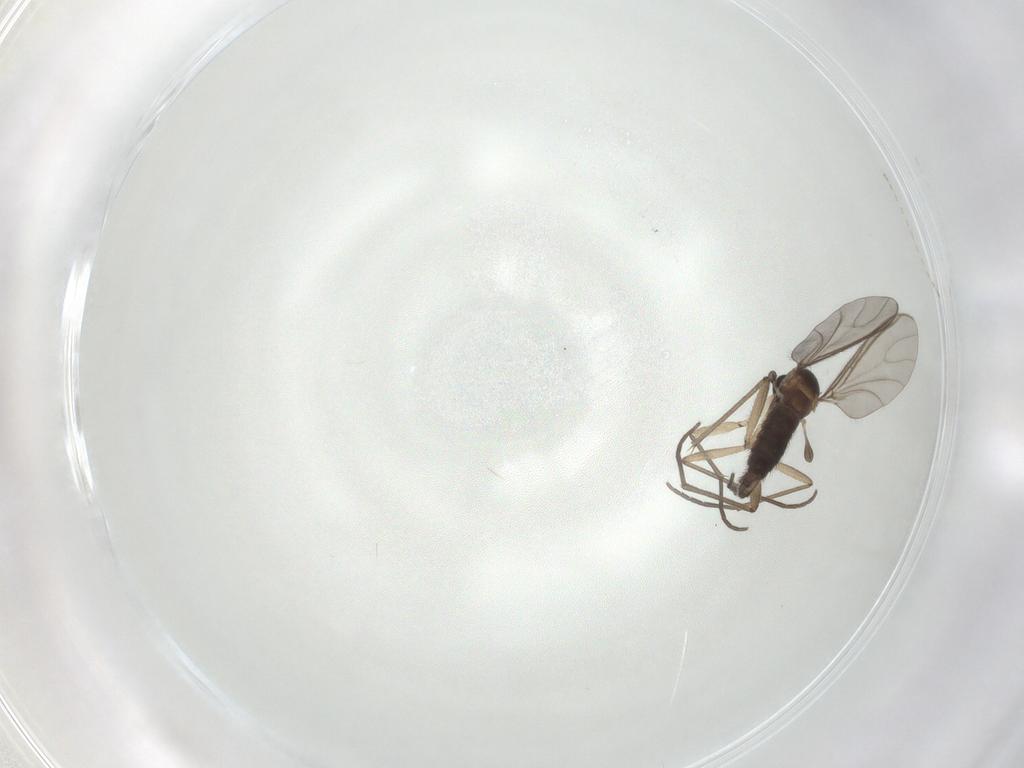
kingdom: Animalia
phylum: Arthropoda
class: Insecta
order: Diptera
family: Sciaridae
